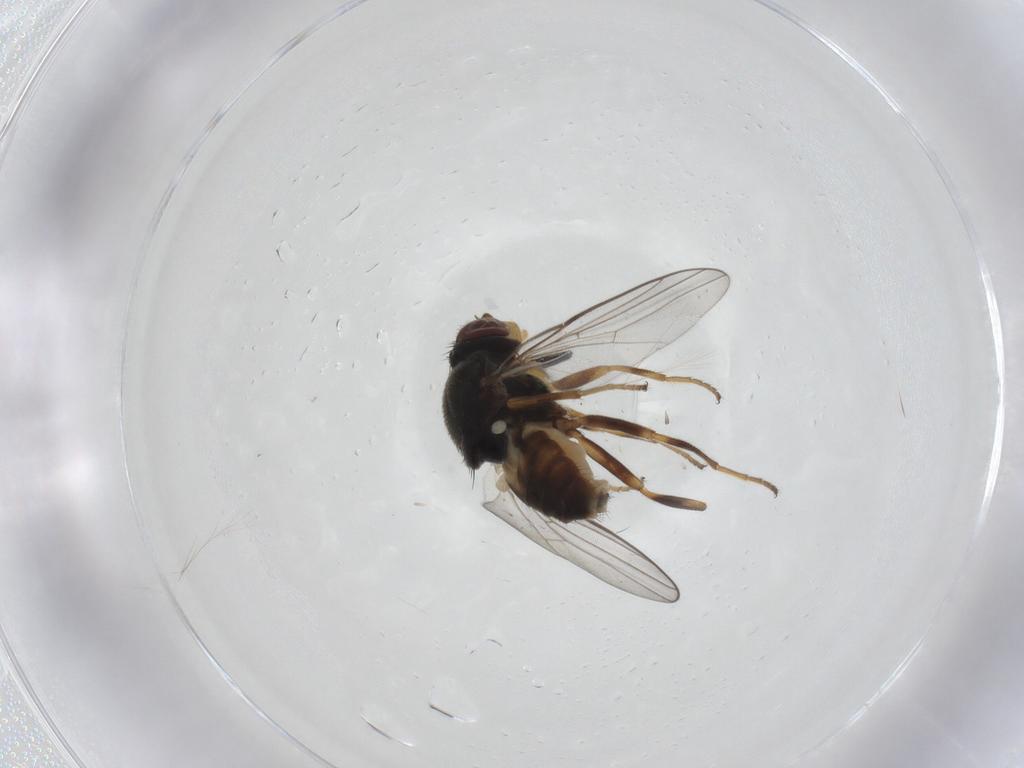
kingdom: Animalia
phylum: Arthropoda
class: Insecta
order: Diptera
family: Chloropidae
